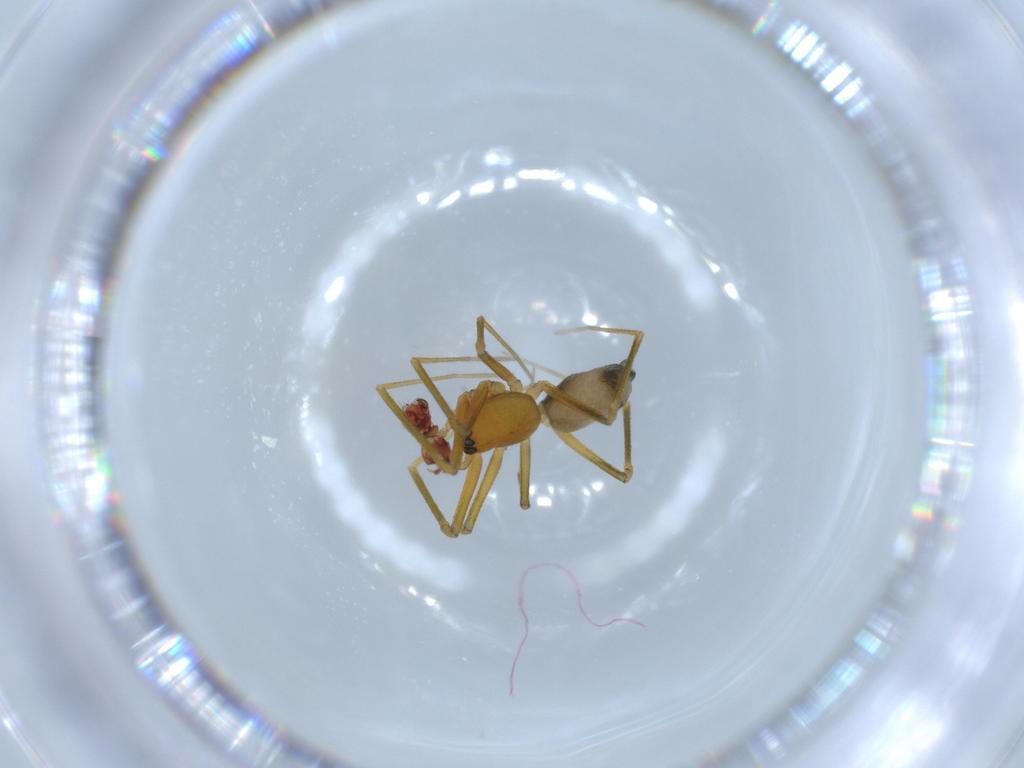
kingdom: Animalia
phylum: Arthropoda
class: Arachnida
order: Araneae
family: Linyphiidae
